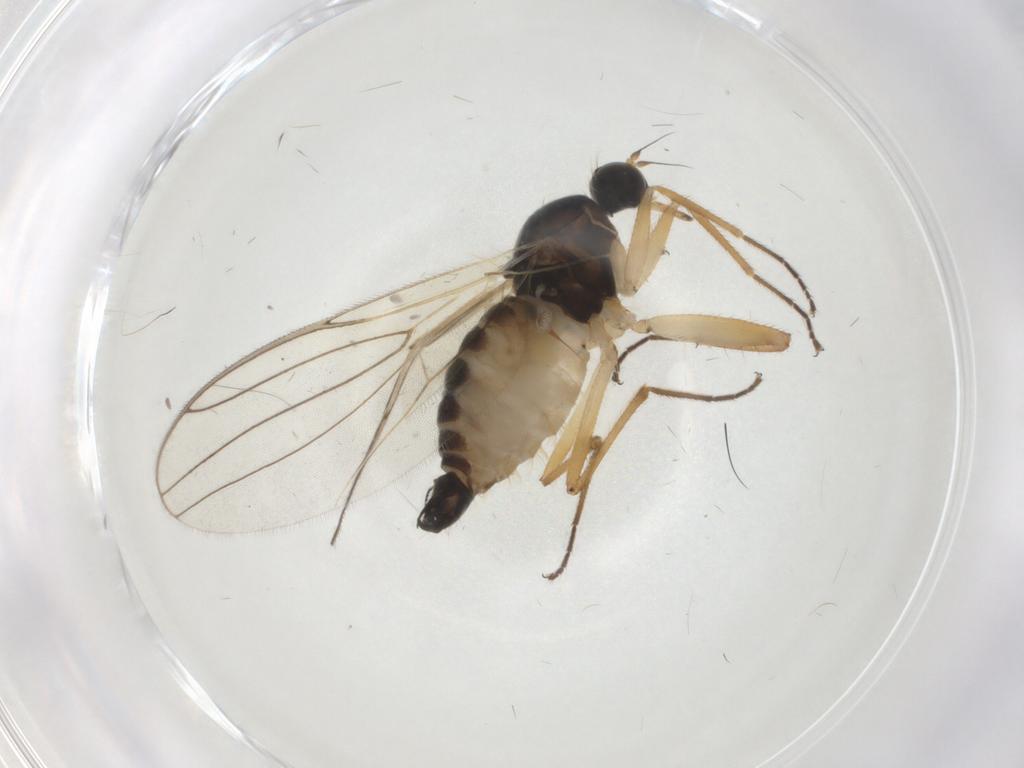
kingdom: Animalia
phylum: Arthropoda
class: Insecta
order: Diptera
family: Hybotidae
